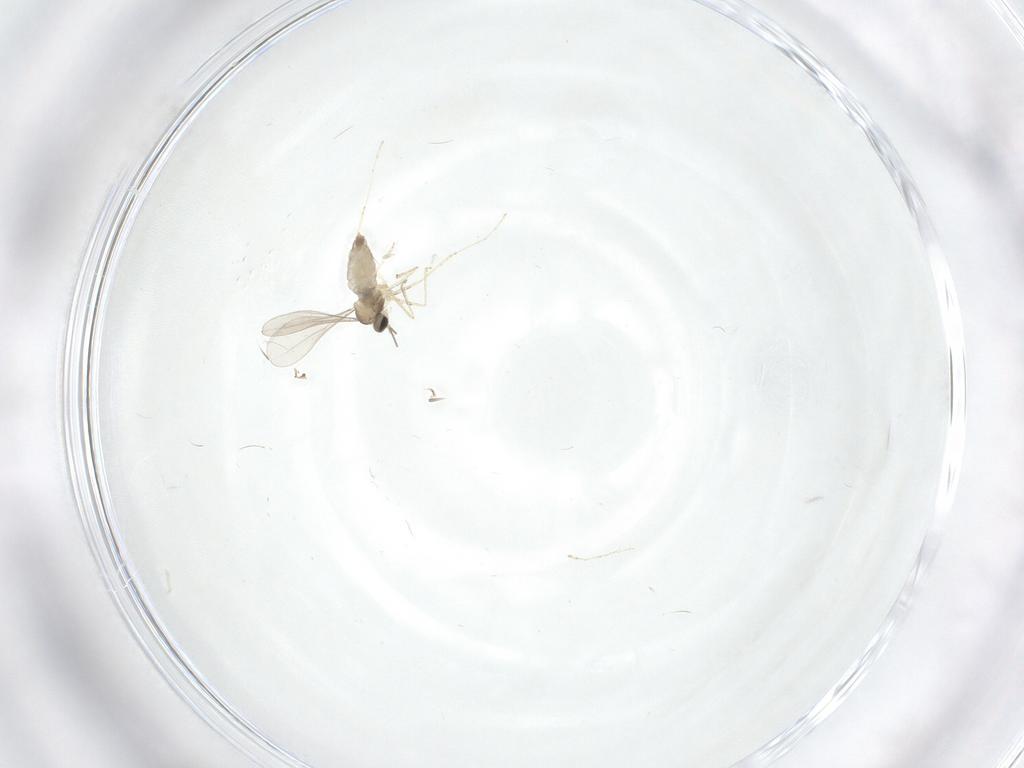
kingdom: Animalia
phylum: Arthropoda
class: Insecta
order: Diptera
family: Ceratopogonidae
